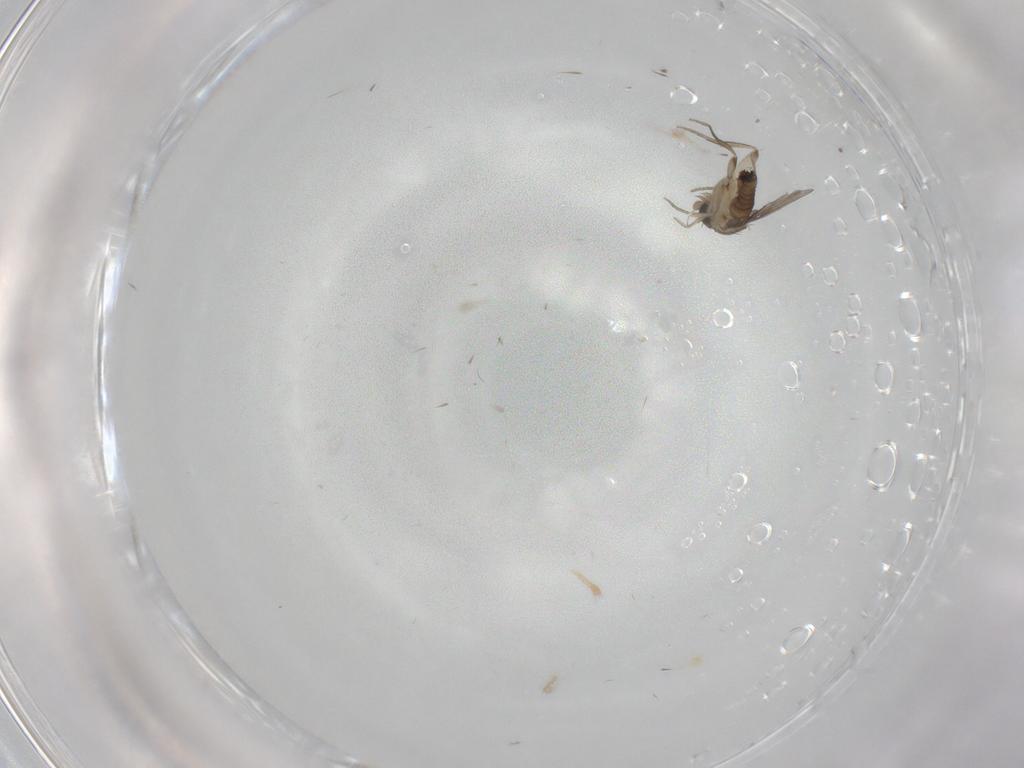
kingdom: Animalia
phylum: Arthropoda
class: Insecta
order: Diptera
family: Phoridae
